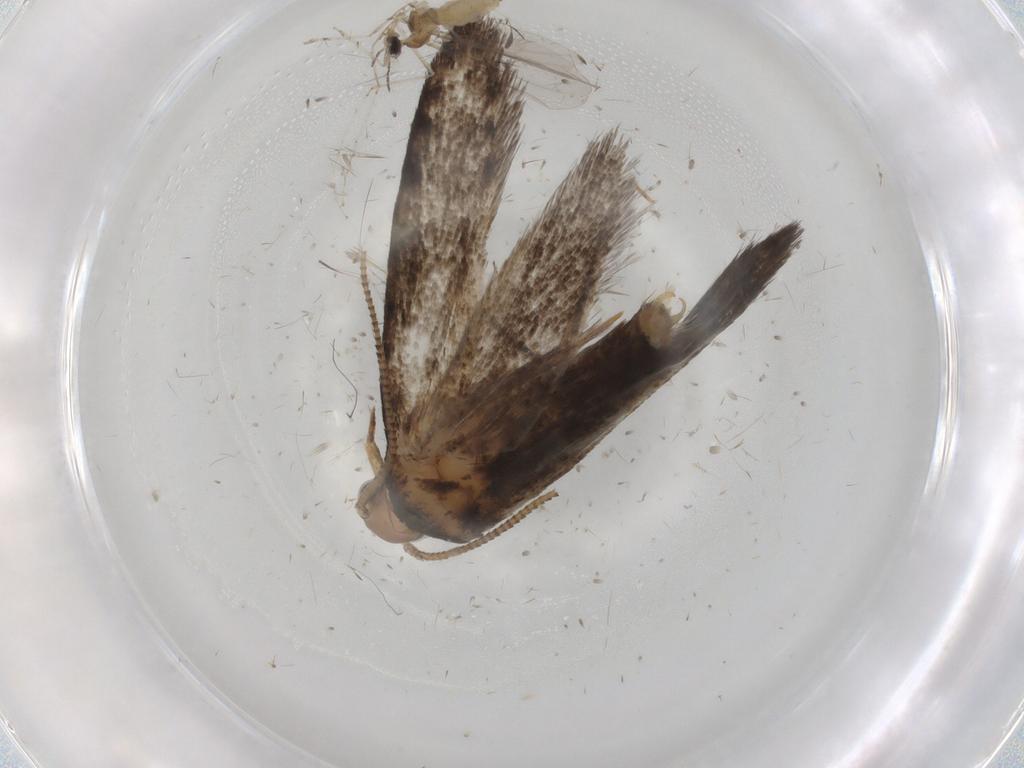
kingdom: Animalia
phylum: Arthropoda
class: Insecta
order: Lepidoptera
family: Tineidae
